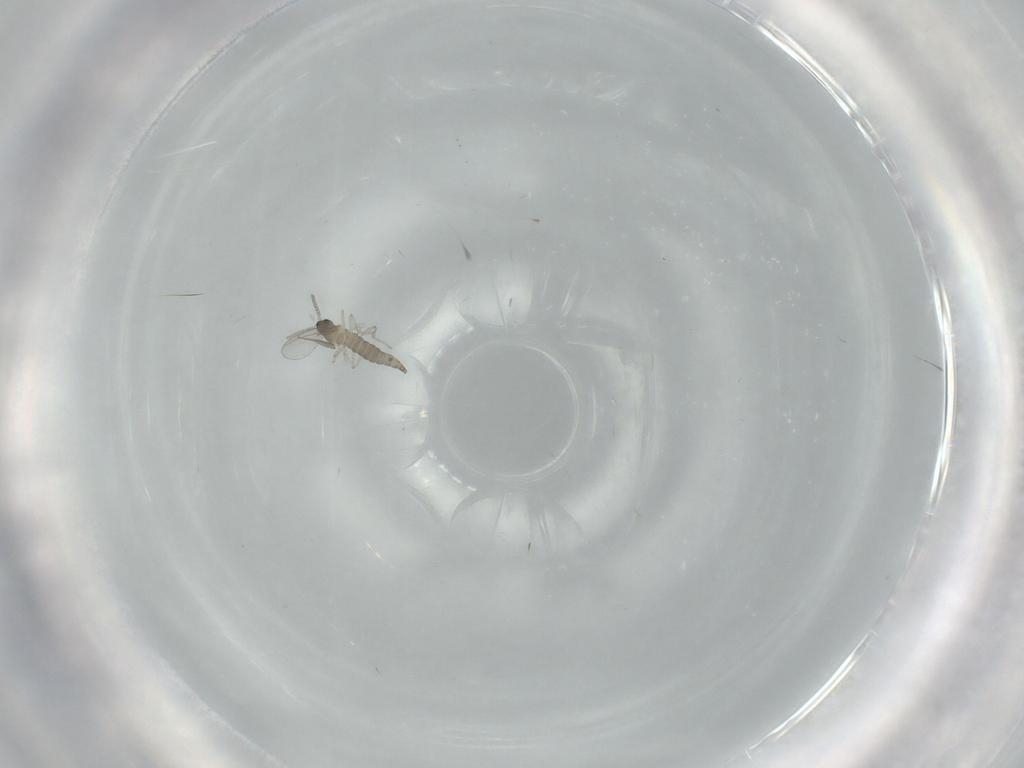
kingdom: Animalia
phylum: Arthropoda
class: Insecta
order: Diptera
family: Cecidomyiidae
